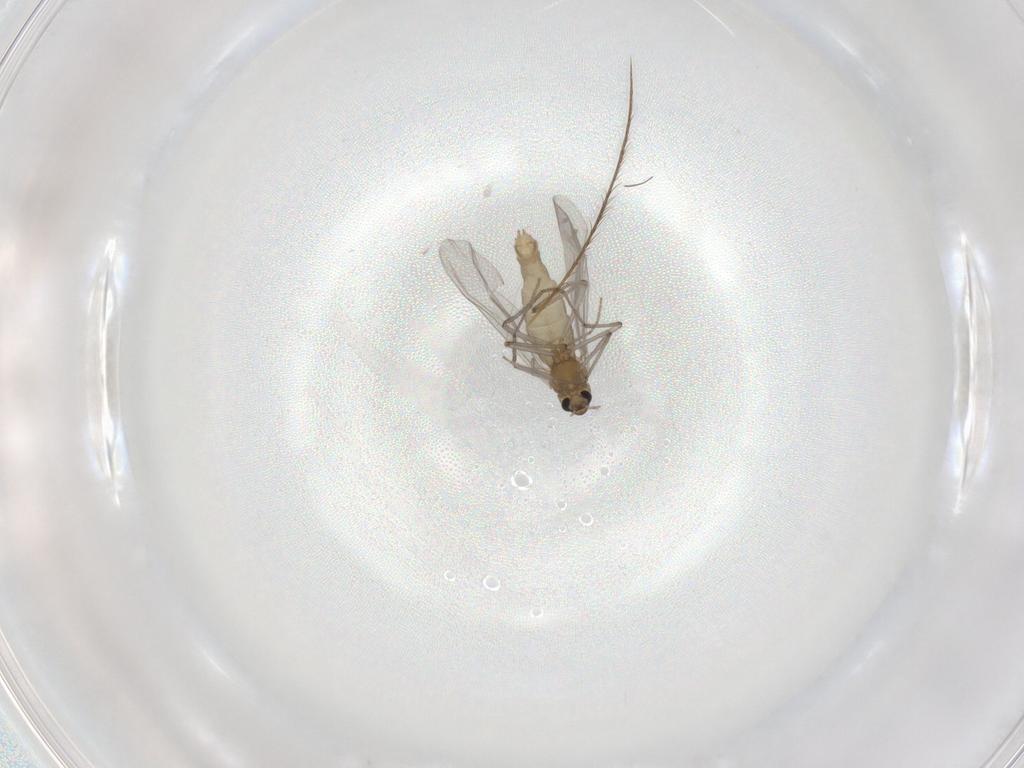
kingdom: Animalia
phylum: Arthropoda
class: Insecta
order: Diptera
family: Chironomidae
